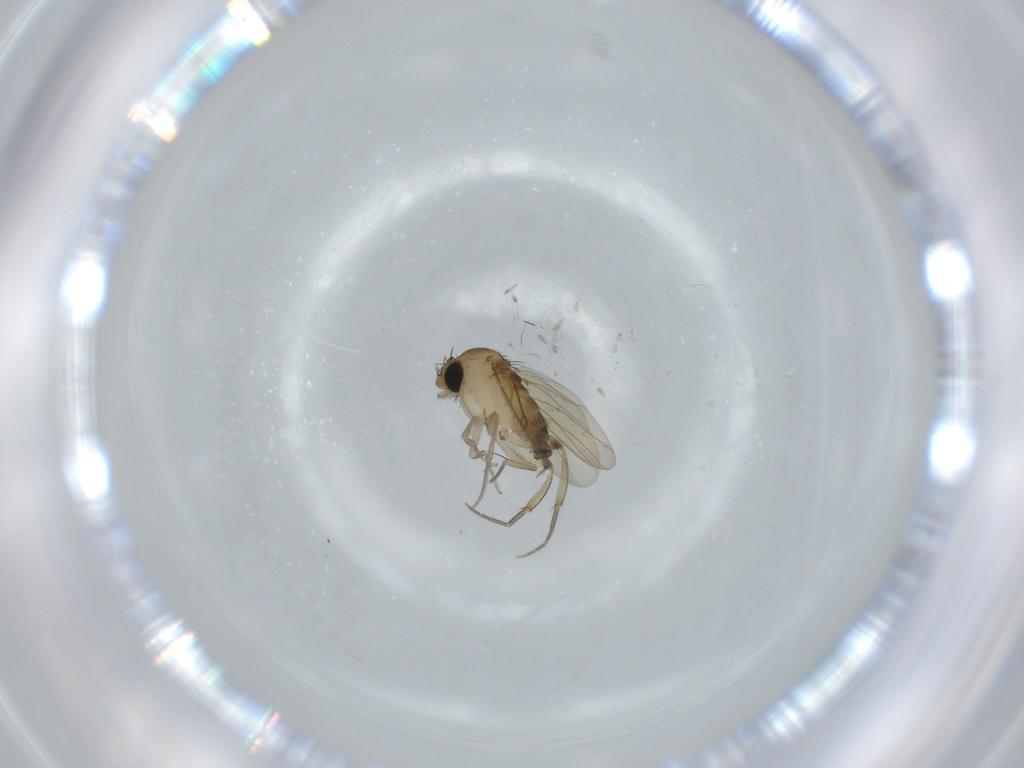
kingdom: Animalia
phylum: Arthropoda
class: Insecta
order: Diptera
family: Phoridae
